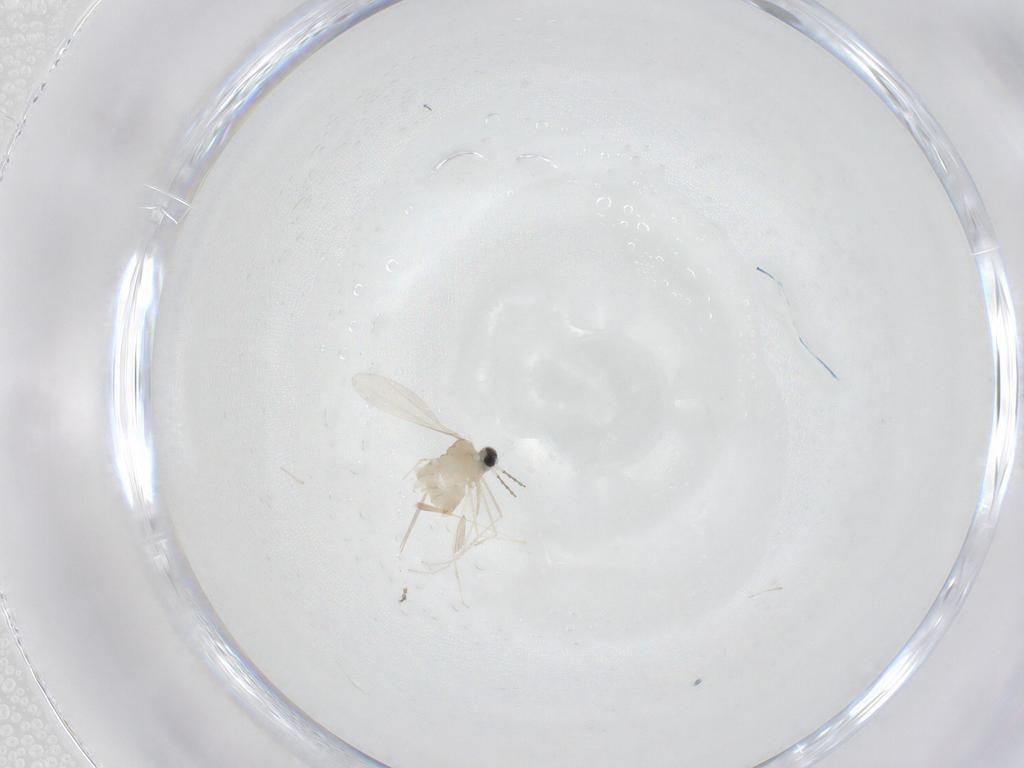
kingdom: Animalia
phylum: Arthropoda
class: Insecta
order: Diptera
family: Cecidomyiidae
